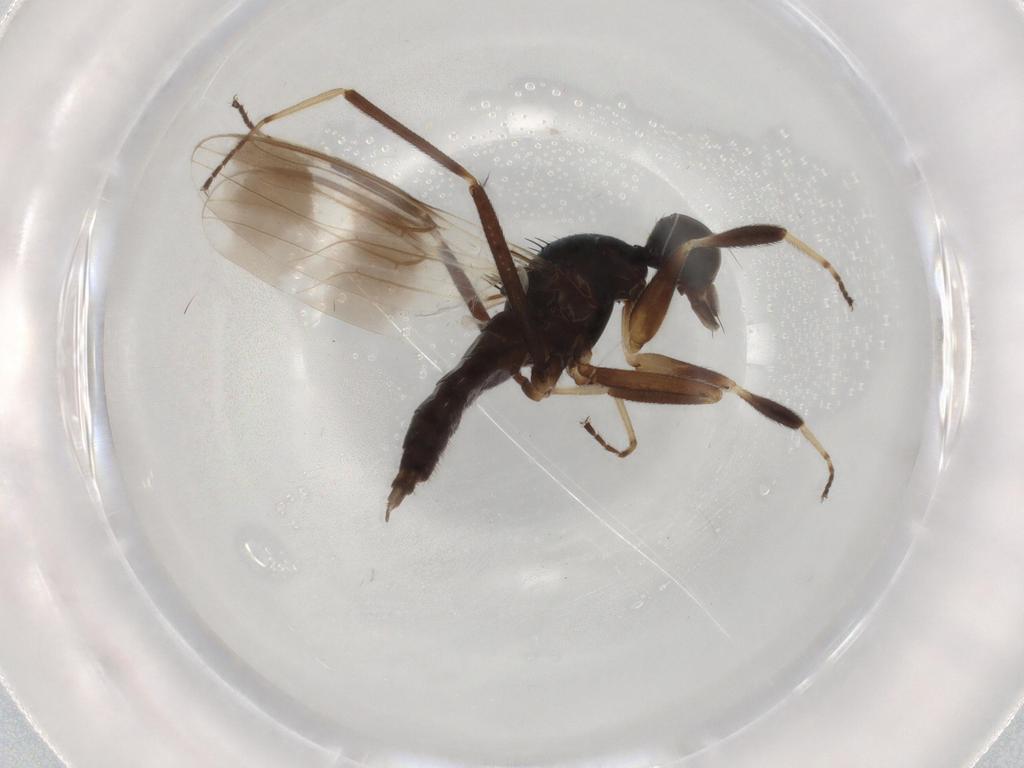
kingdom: Animalia
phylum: Arthropoda
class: Insecta
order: Diptera
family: Hybotidae
